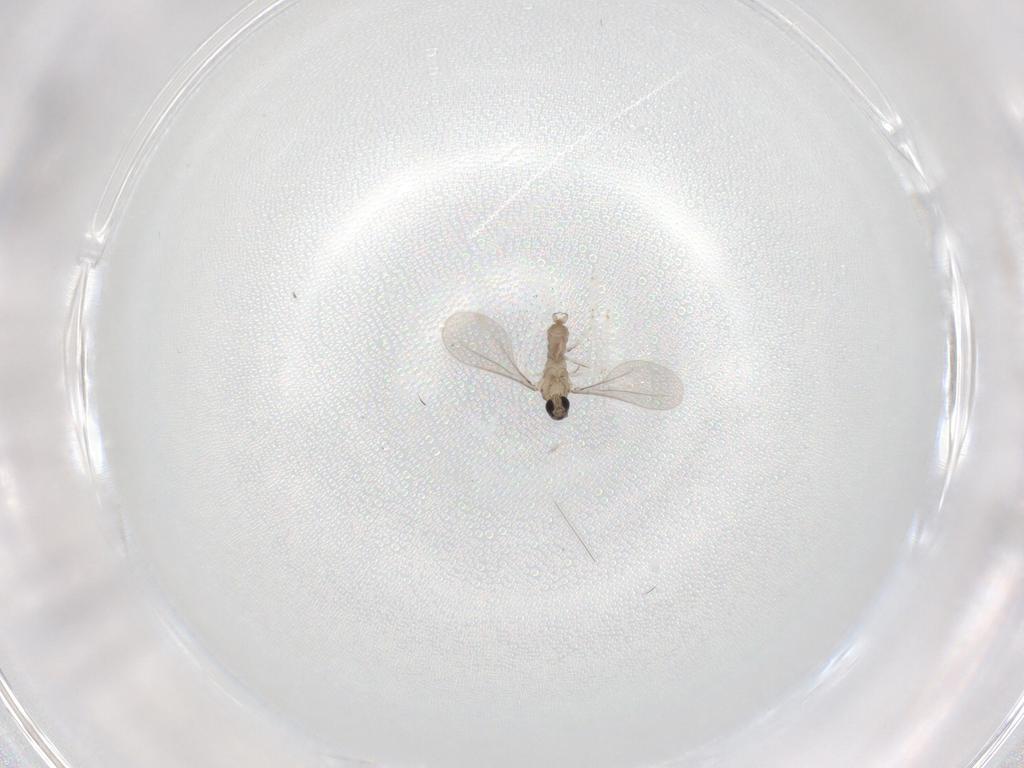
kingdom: Animalia
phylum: Arthropoda
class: Insecta
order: Diptera
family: Cecidomyiidae
